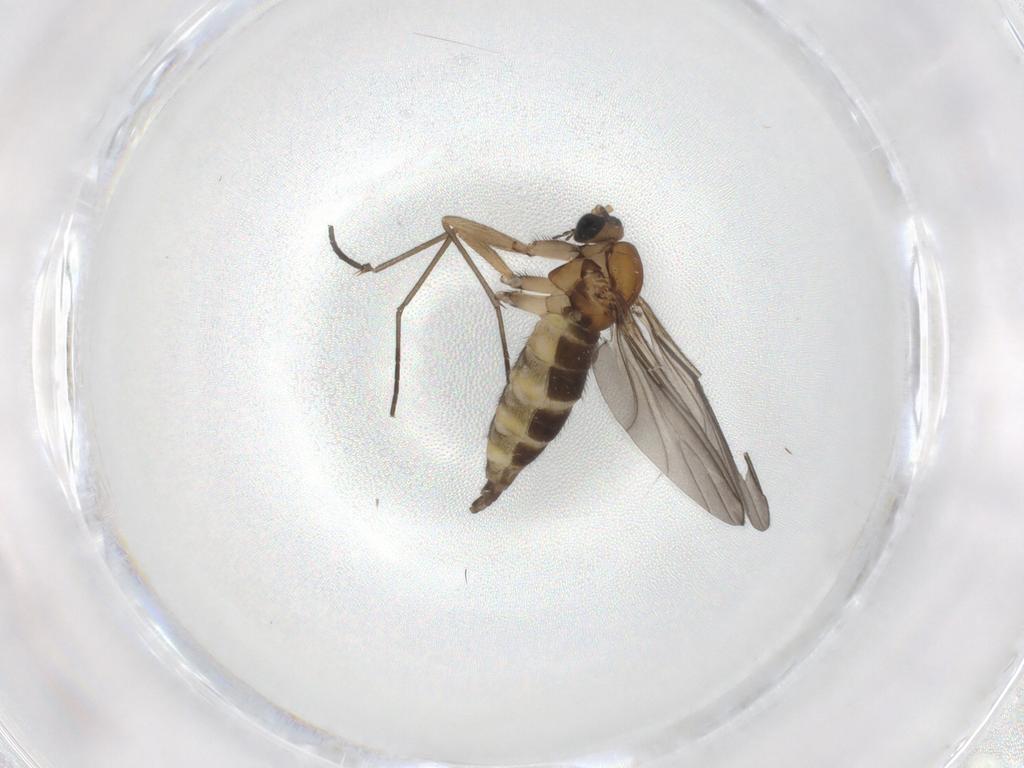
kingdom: Animalia
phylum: Arthropoda
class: Insecta
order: Diptera
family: Sciaridae
